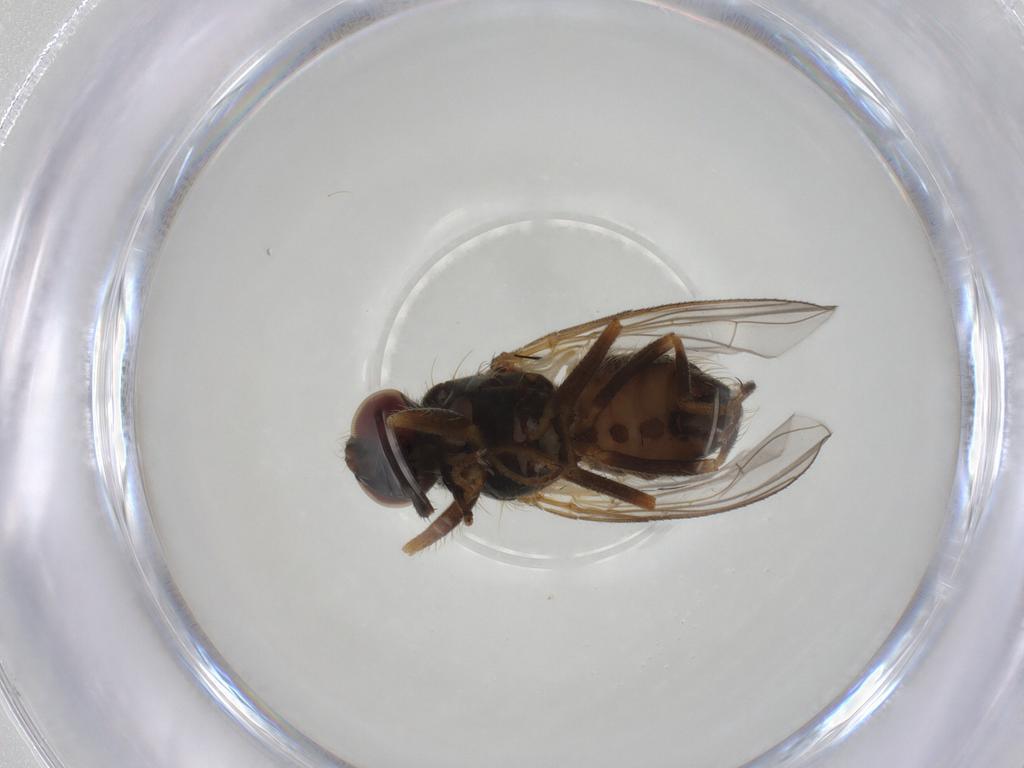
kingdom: Animalia
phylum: Arthropoda
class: Insecta
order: Diptera
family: Muscidae
